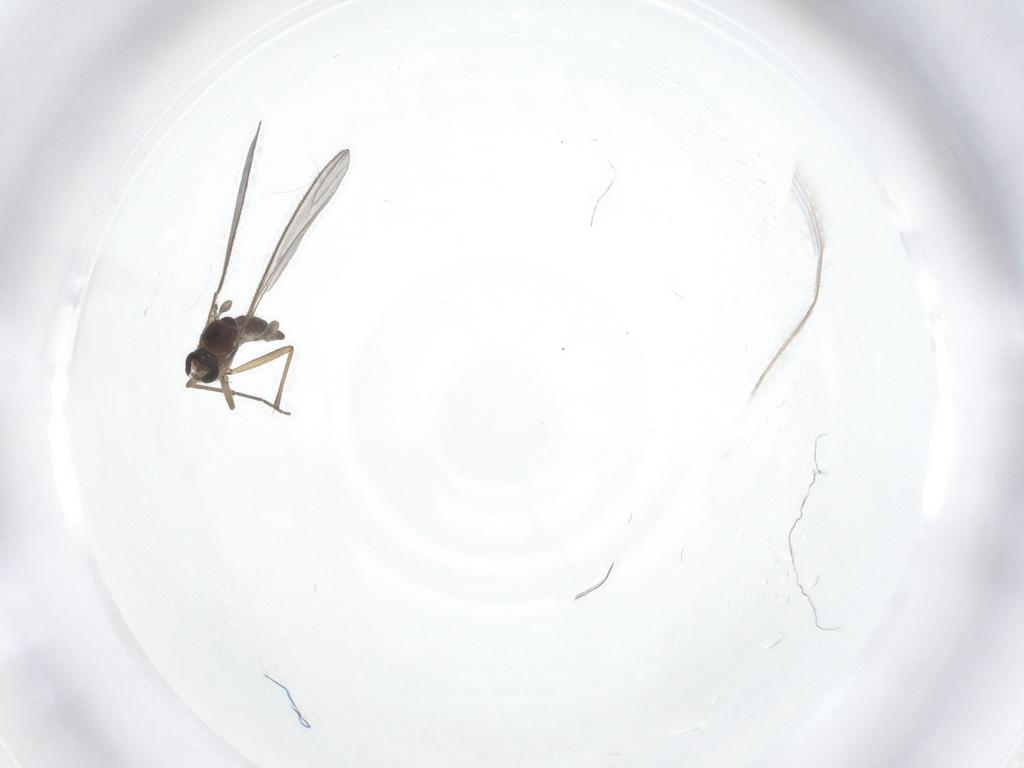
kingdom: Animalia
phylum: Arthropoda
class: Insecta
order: Diptera
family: Sciaridae
